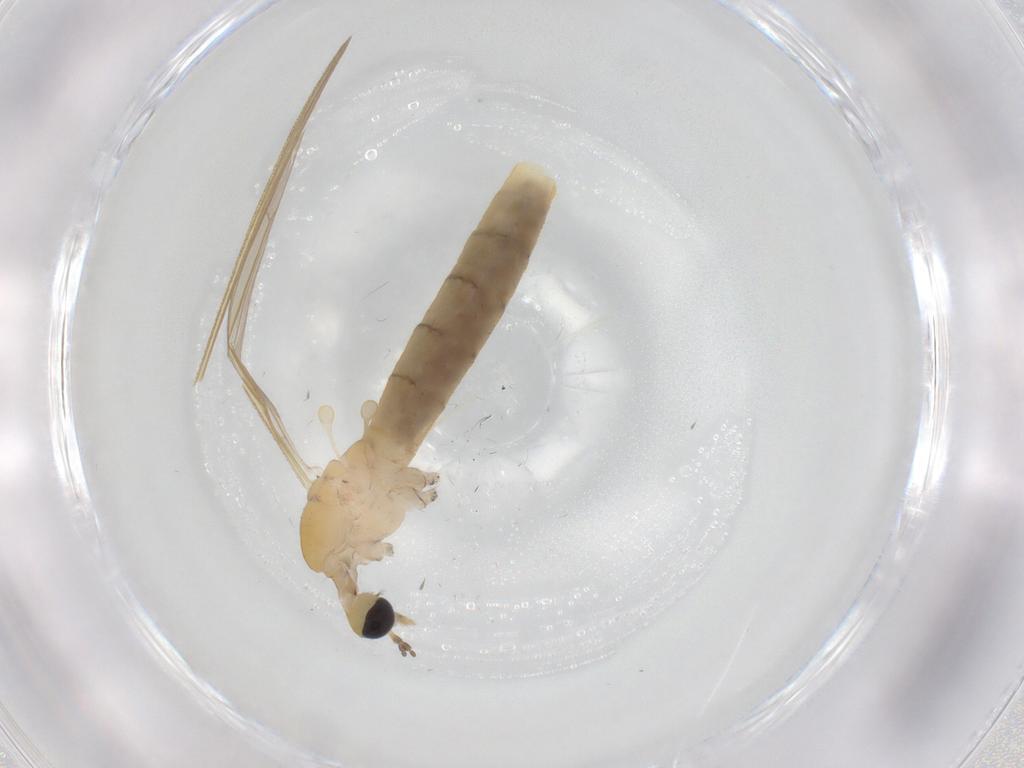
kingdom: Animalia
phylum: Arthropoda
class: Insecta
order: Diptera
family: Limoniidae
